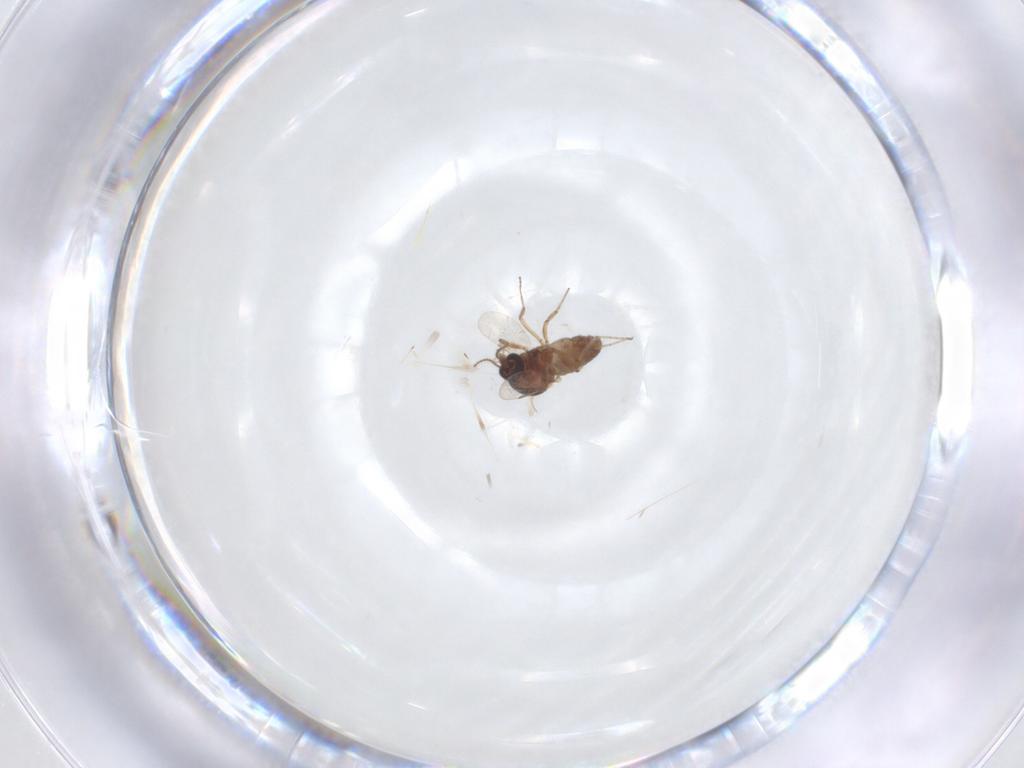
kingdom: Animalia
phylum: Arthropoda
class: Insecta
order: Diptera
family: Ceratopogonidae
